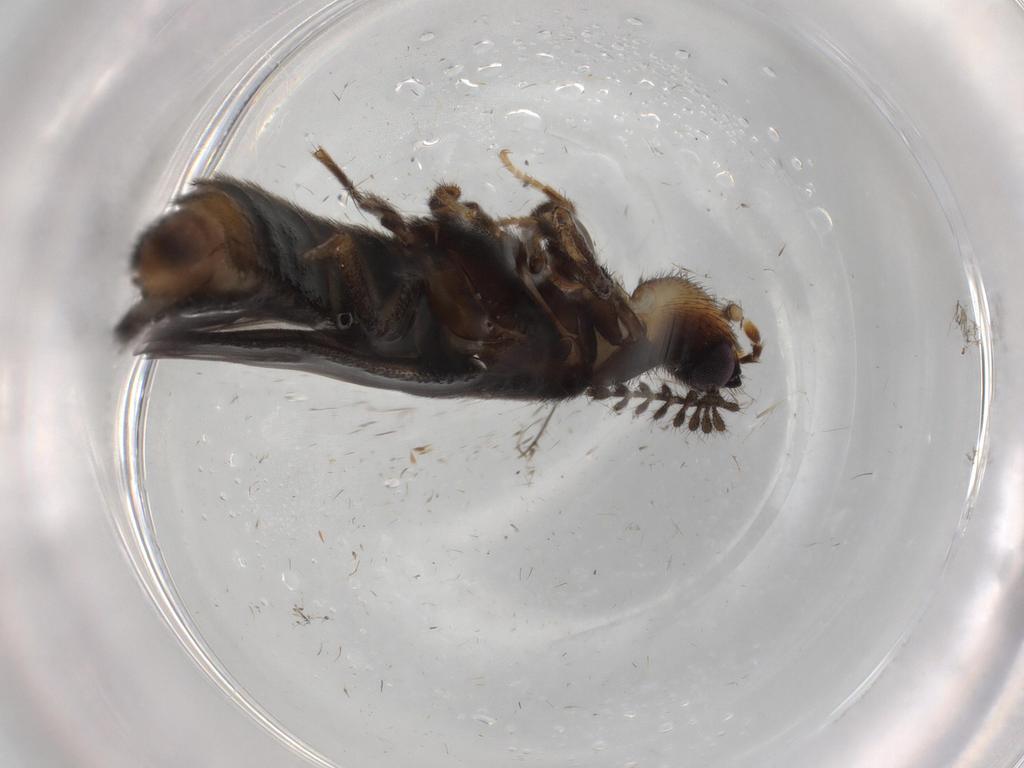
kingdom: Animalia
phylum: Arthropoda
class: Insecta
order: Coleoptera
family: Phengodidae
